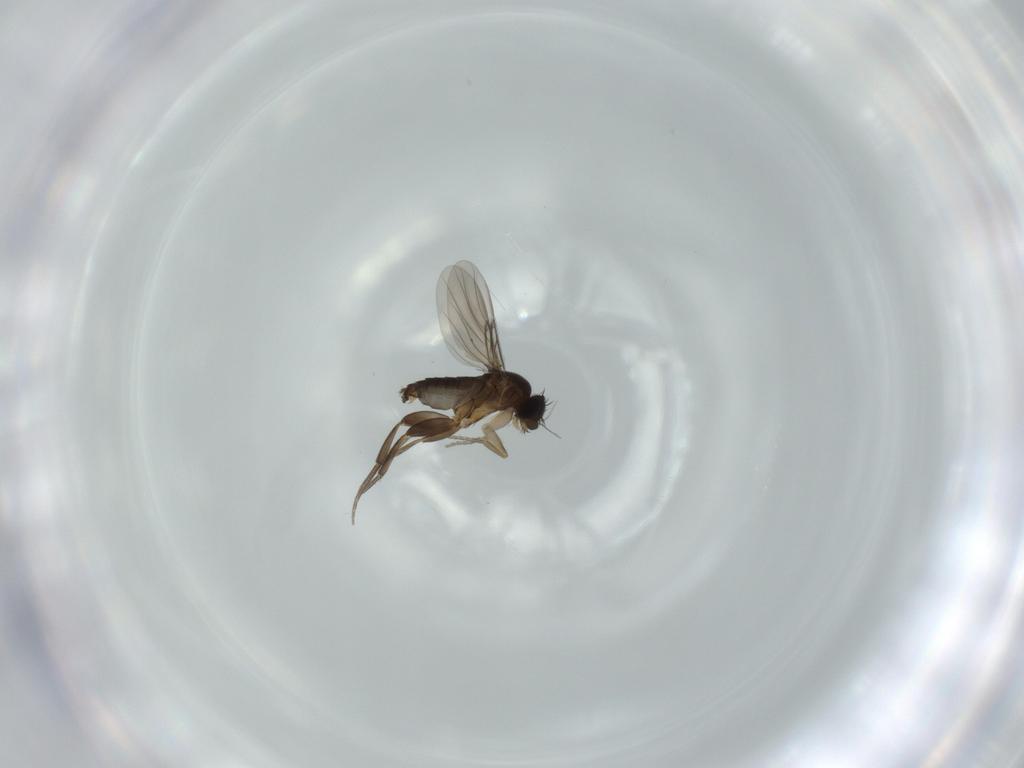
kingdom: Animalia
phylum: Arthropoda
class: Insecta
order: Diptera
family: Phoridae
